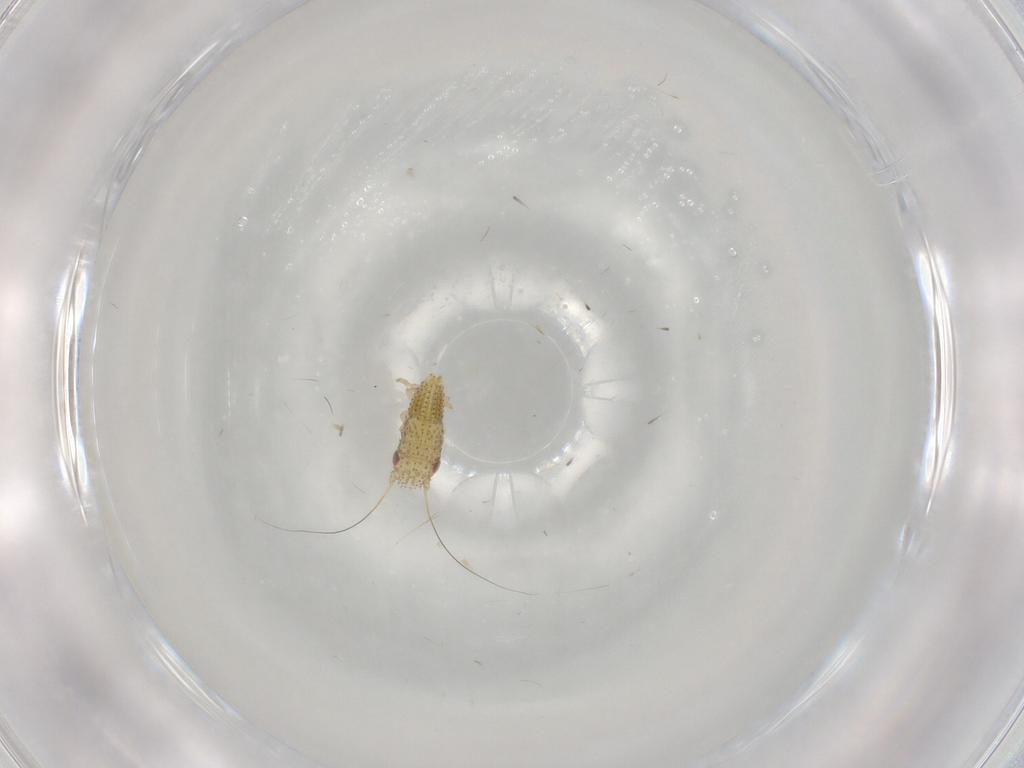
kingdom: Animalia
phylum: Arthropoda
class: Insecta
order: Hemiptera
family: Cicadellidae
